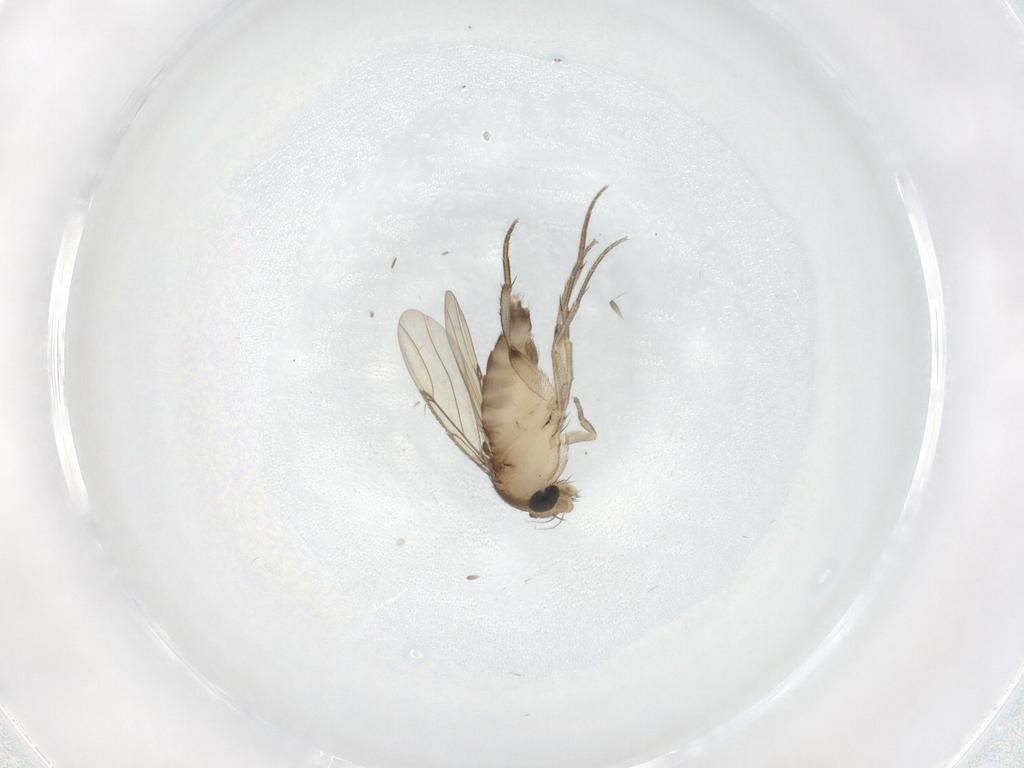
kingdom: Animalia
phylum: Arthropoda
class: Insecta
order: Diptera
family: Phoridae
